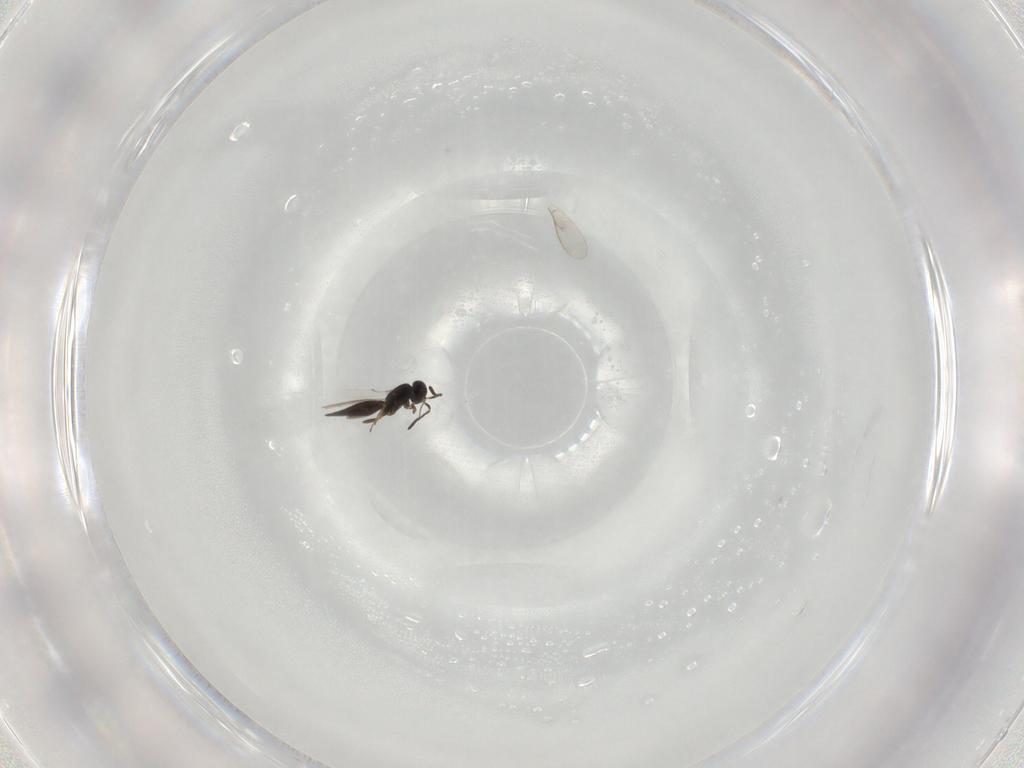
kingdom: Animalia
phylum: Arthropoda
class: Insecta
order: Hymenoptera
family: Scelionidae
